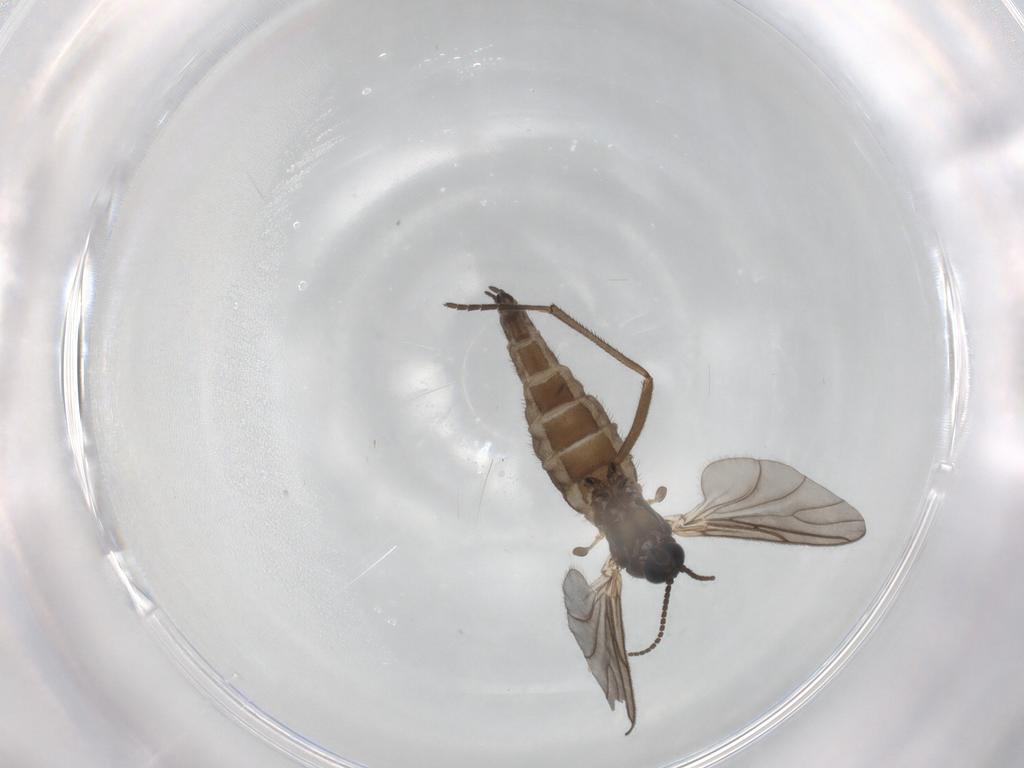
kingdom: Animalia
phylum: Arthropoda
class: Insecta
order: Diptera
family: Sciaridae
